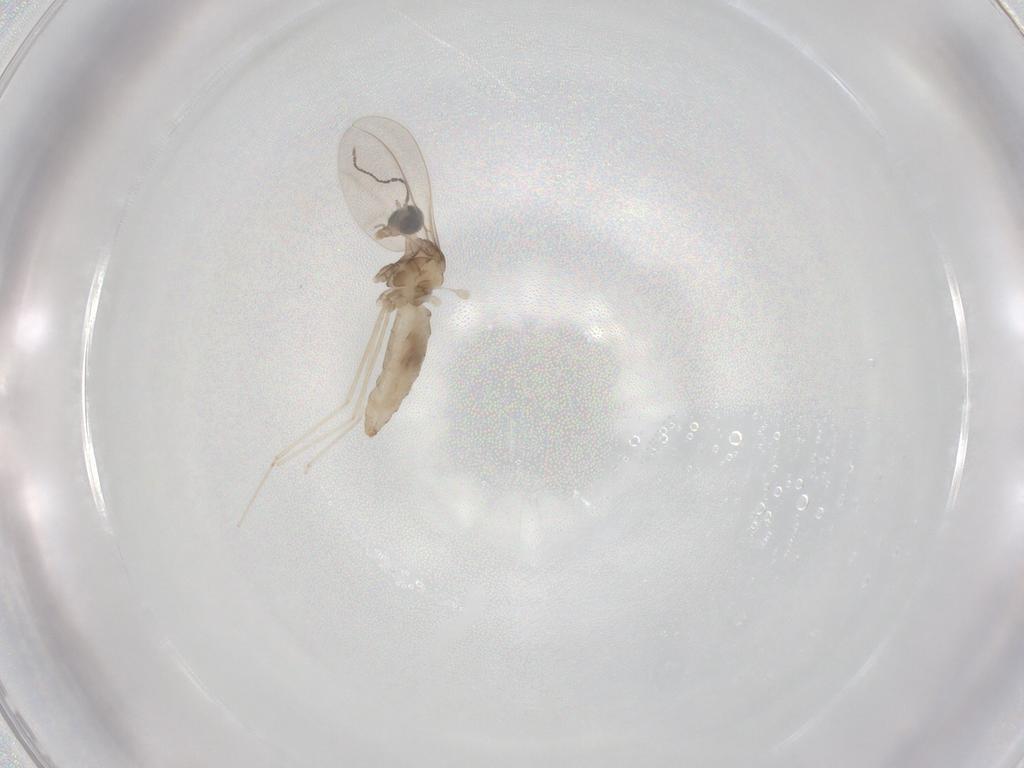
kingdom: Animalia
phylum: Arthropoda
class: Insecta
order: Diptera
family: Cecidomyiidae
